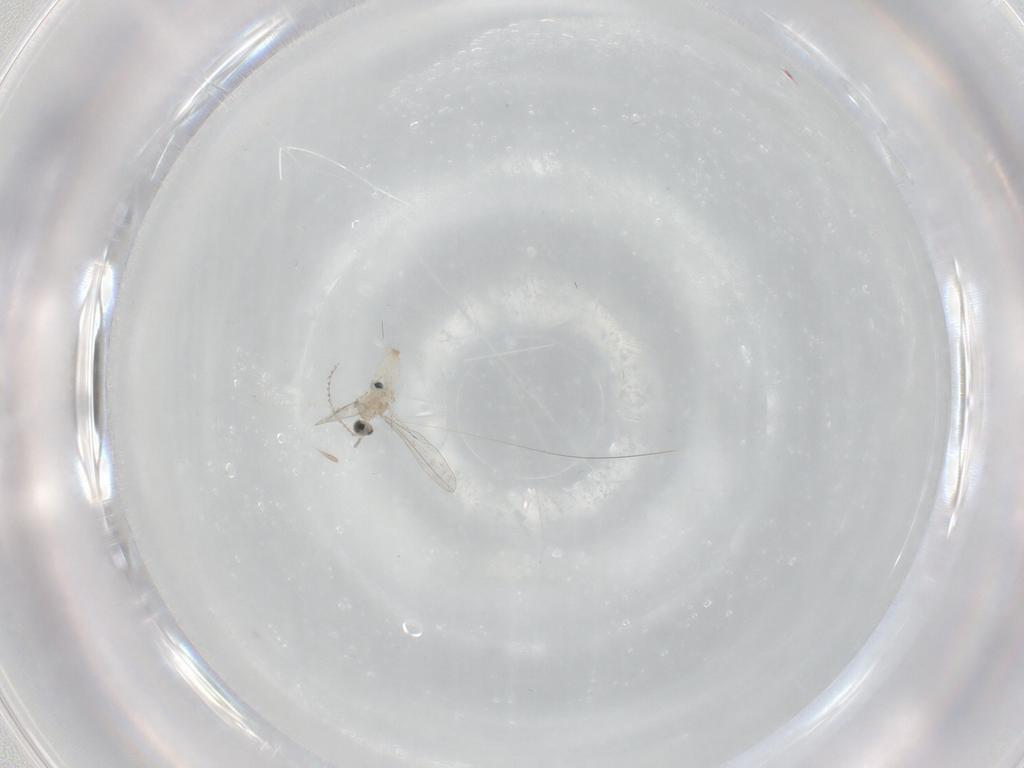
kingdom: Animalia
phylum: Arthropoda
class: Insecta
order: Diptera
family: Cecidomyiidae
